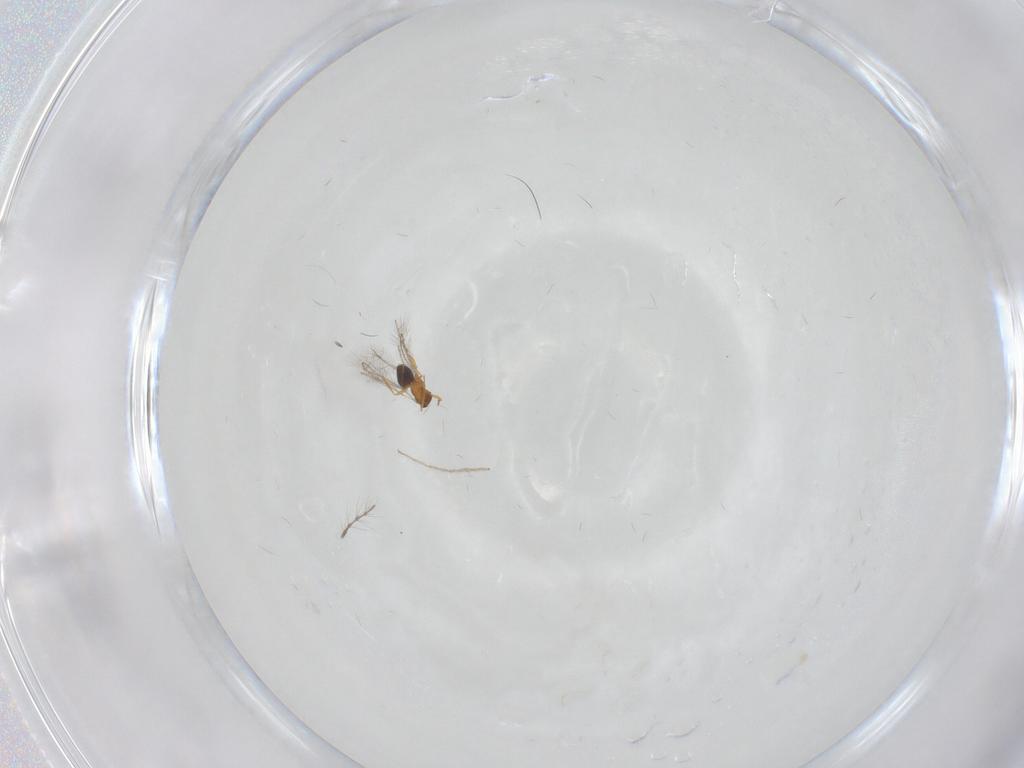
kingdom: Animalia
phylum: Arthropoda
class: Insecta
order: Hymenoptera
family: Mymaridae
